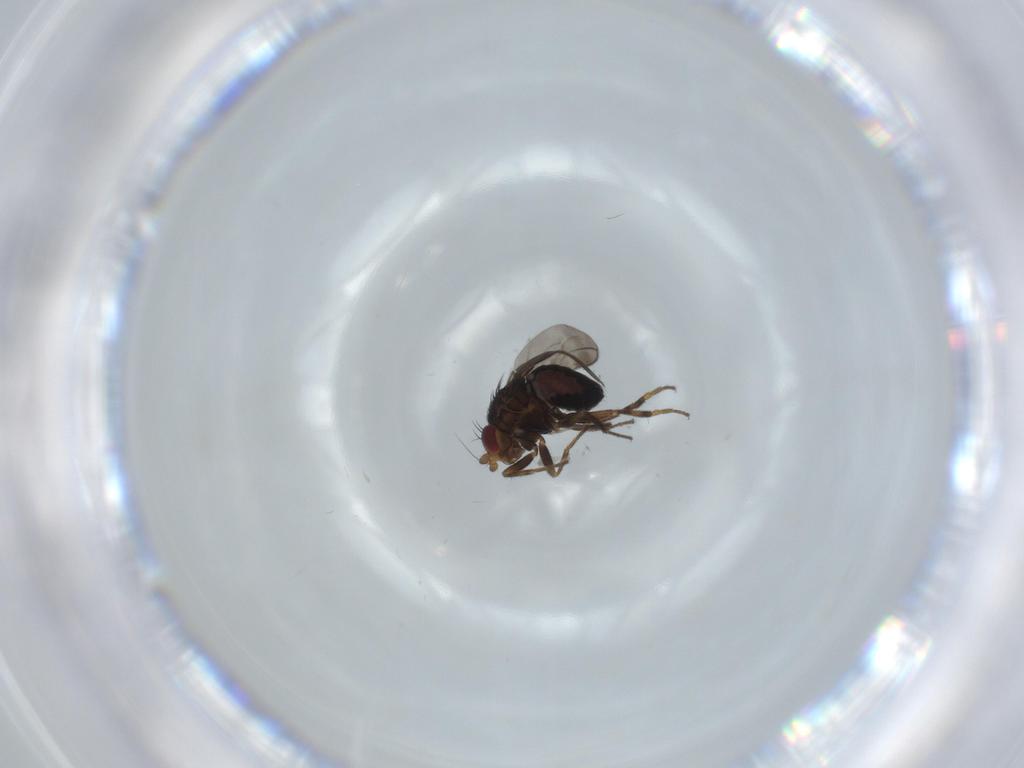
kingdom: Animalia
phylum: Arthropoda
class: Insecta
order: Diptera
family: Sphaeroceridae
